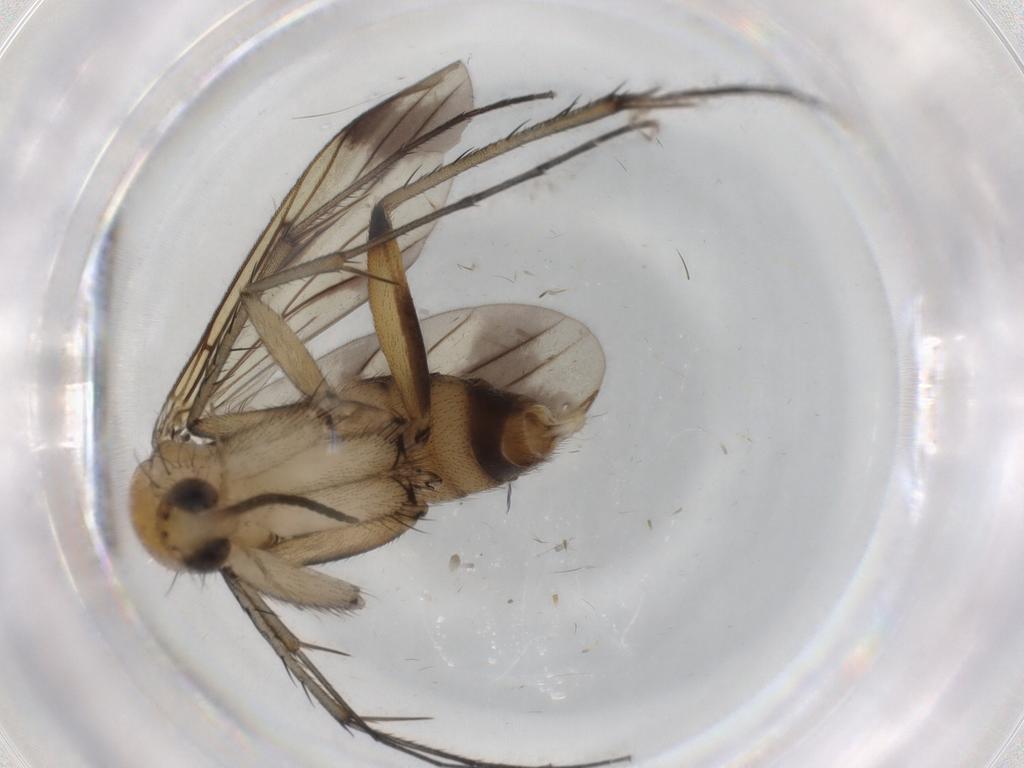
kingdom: Animalia
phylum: Arthropoda
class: Insecta
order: Diptera
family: Mycetophilidae
